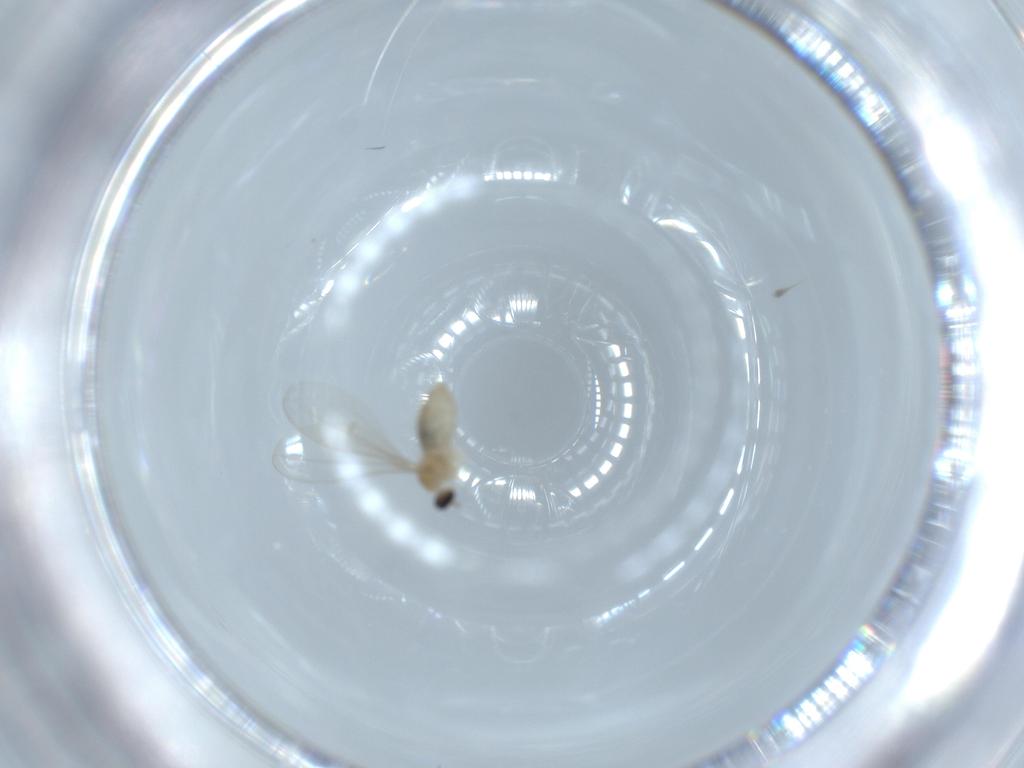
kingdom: Animalia
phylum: Arthropoda
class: Insecta
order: Diptera
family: Cecidomyiidae
